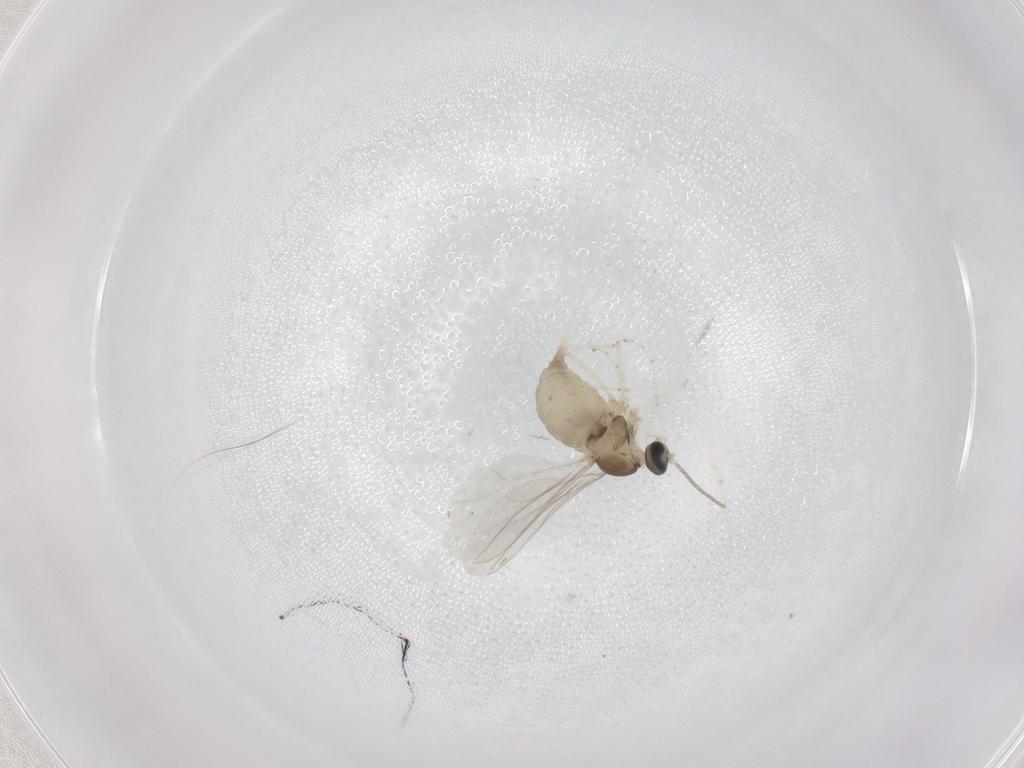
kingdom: Animalia
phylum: Arthropoda
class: Insecta
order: Diptera
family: Cecidomyiidae
